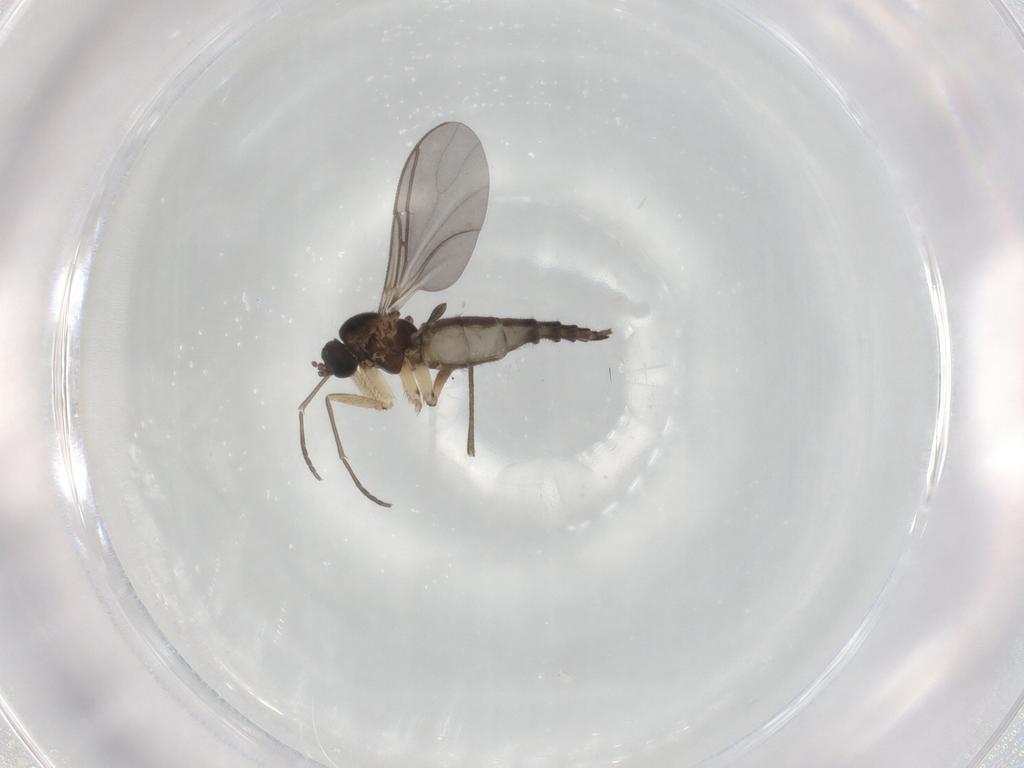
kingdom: Animalia
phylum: Arthropoda
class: Insecta
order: Diptera
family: Sciaridae
